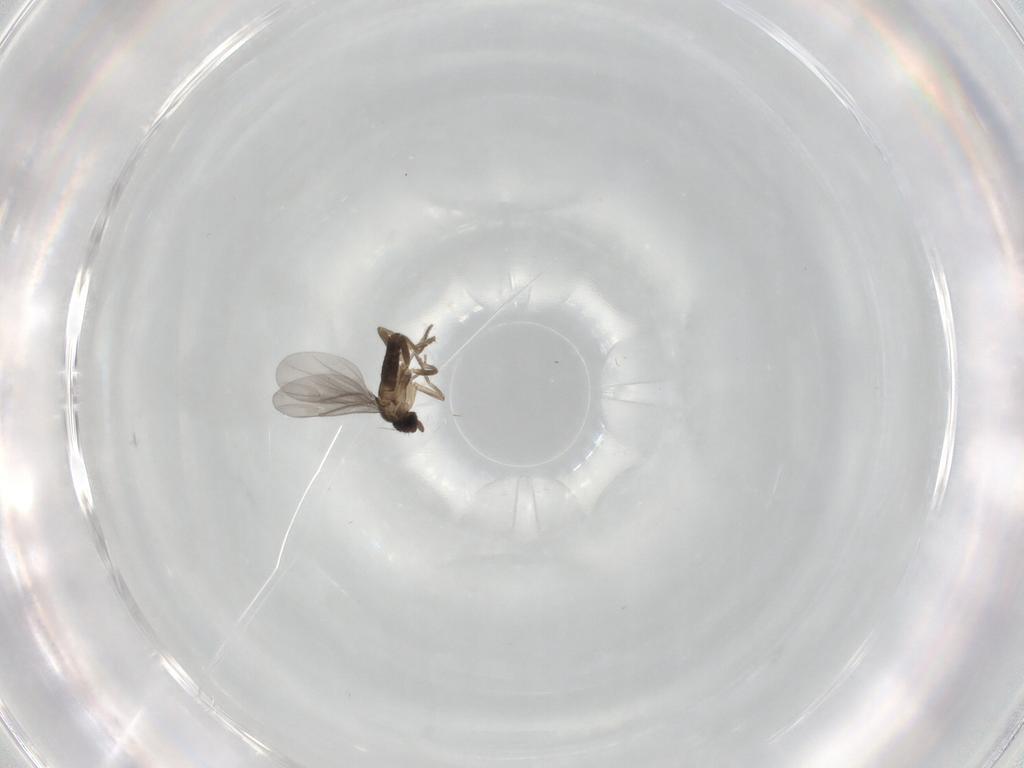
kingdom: Animalia
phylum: Arthropoda
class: Insecta
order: Diptera
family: Phoridae
